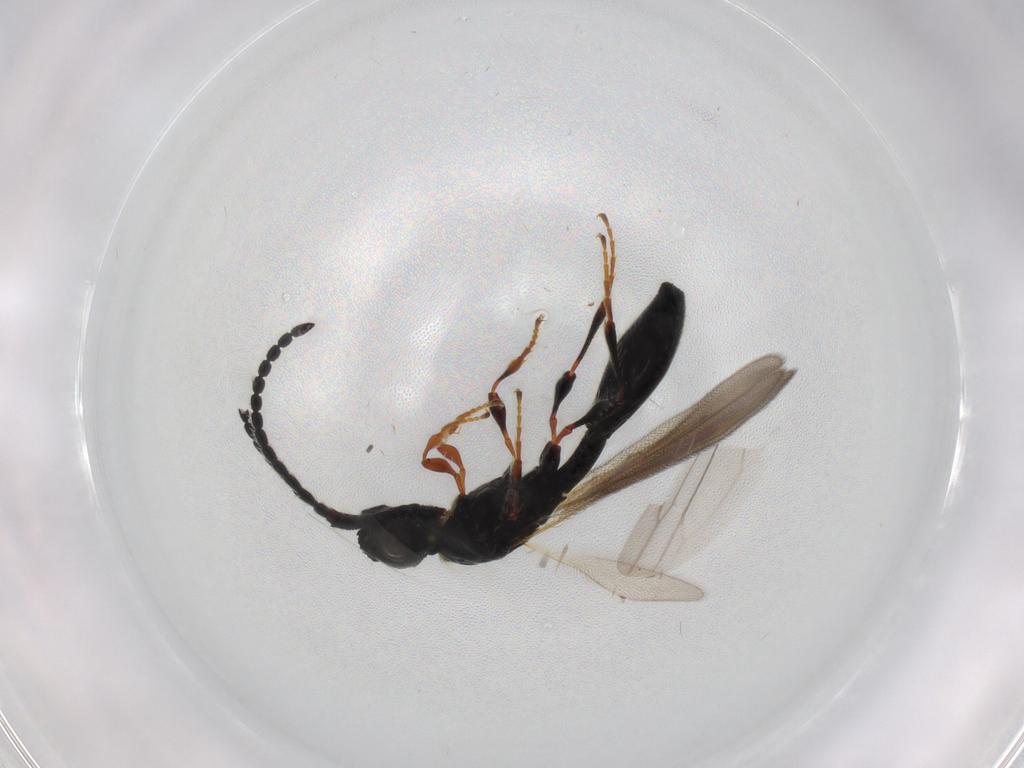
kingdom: Animalia
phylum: Arthropoda
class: Insecta
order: Hymenoptera
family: Diapriidae
